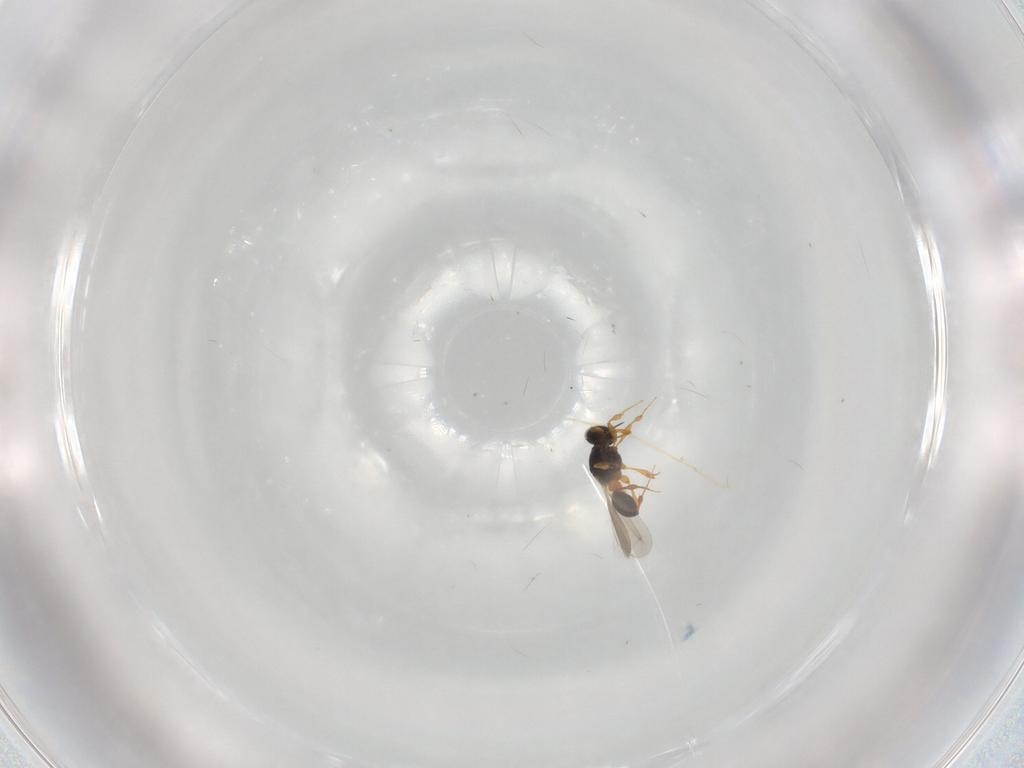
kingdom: Animalia
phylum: Arthropoda
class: Insecta
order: Hymenoptera
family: Platygastridae
